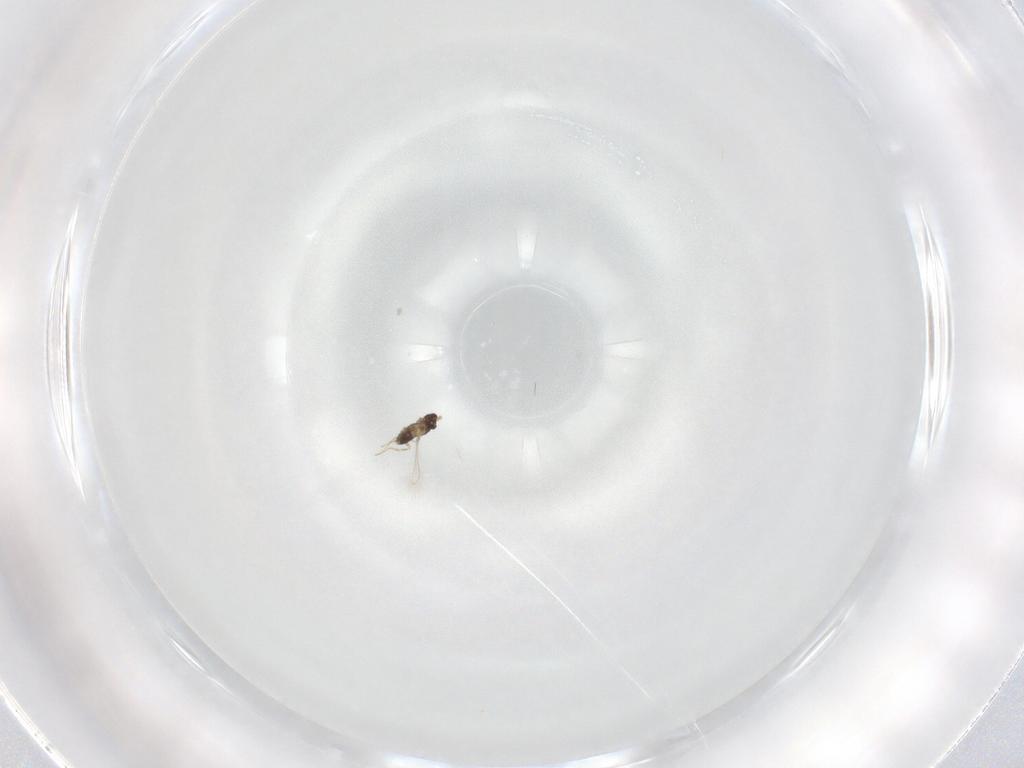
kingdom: Animalia
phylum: Arthropoda
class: Insecta
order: Hymenoptera
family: Mymaridae
